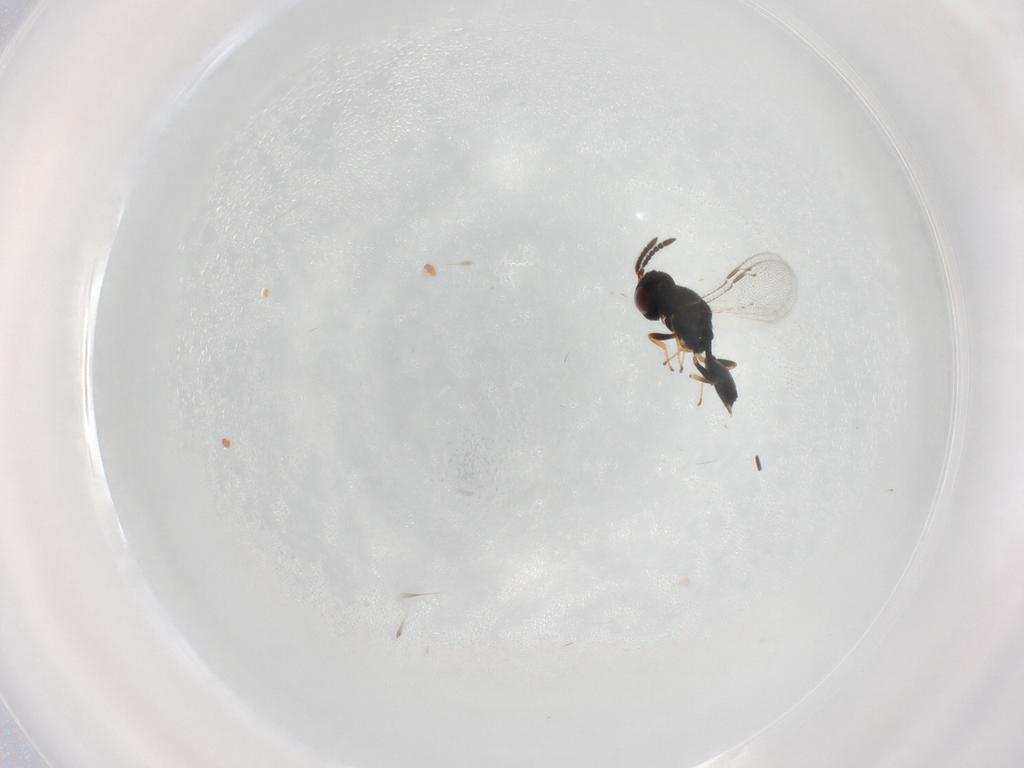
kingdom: Animalia
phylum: Arthropoda
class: Insecta
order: Hymenoptera
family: Pteromalidae
